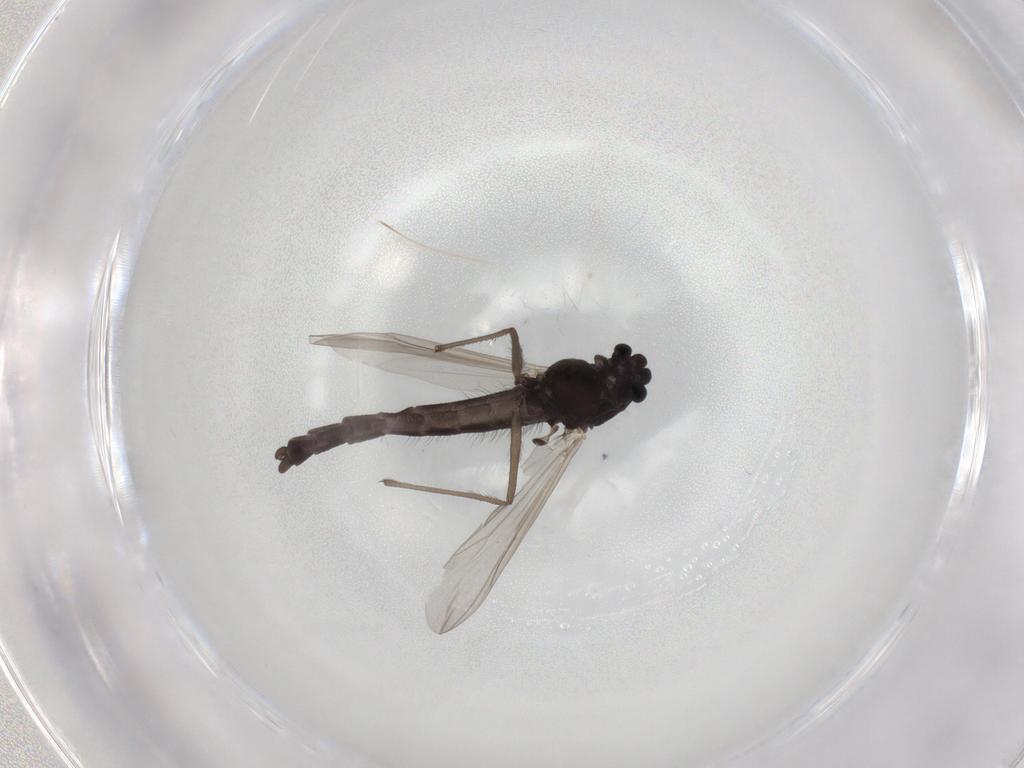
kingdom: Animalia
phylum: Arthropoda
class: Insecta
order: Diptera
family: Chironomidae
